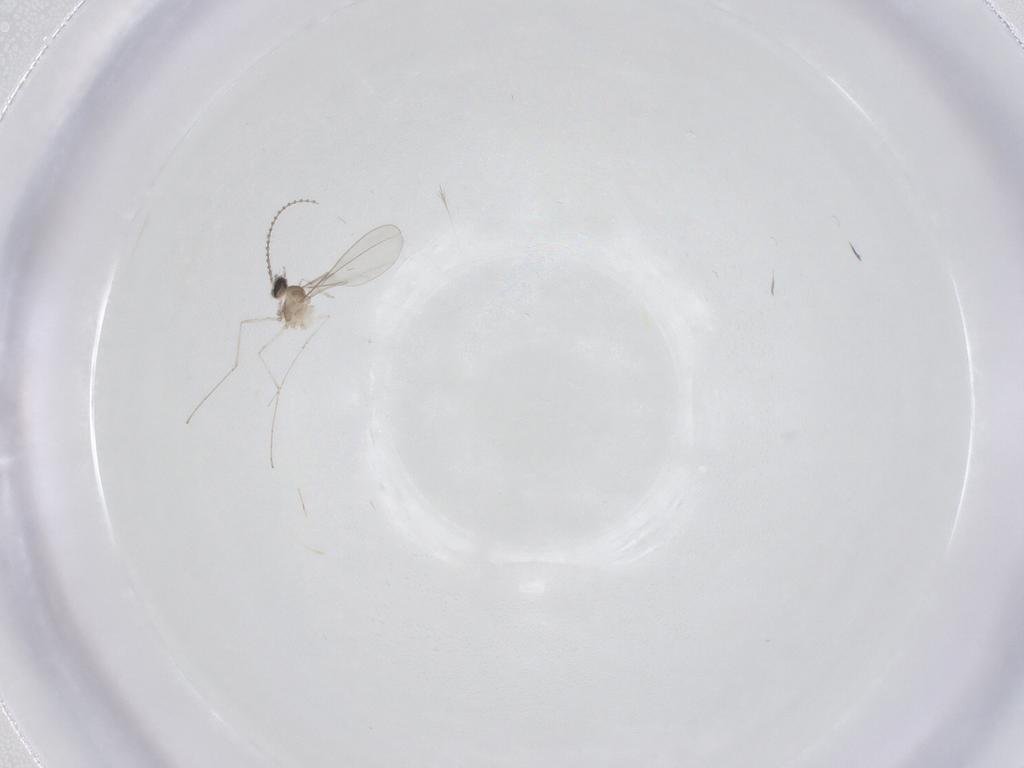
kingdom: Animalia
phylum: Arthropoda
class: Insecta
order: Diptera
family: Cecidomyiidae
